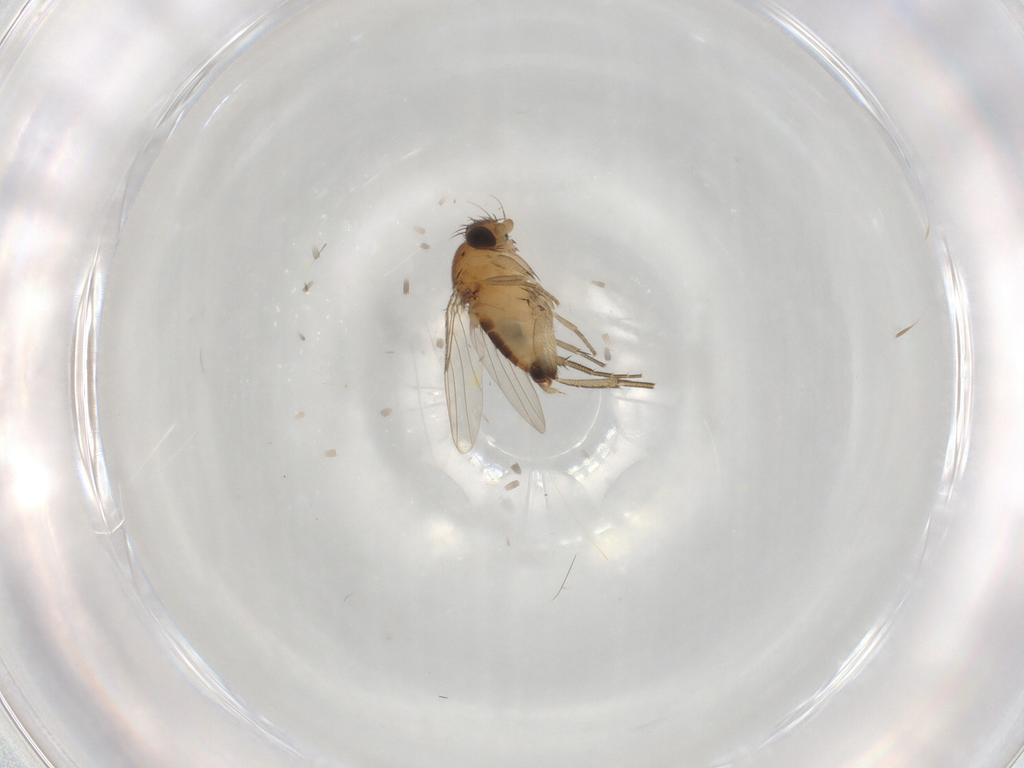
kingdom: Animalia
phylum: Arthropoda
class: Insecta
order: Diptera
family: Phoridae
